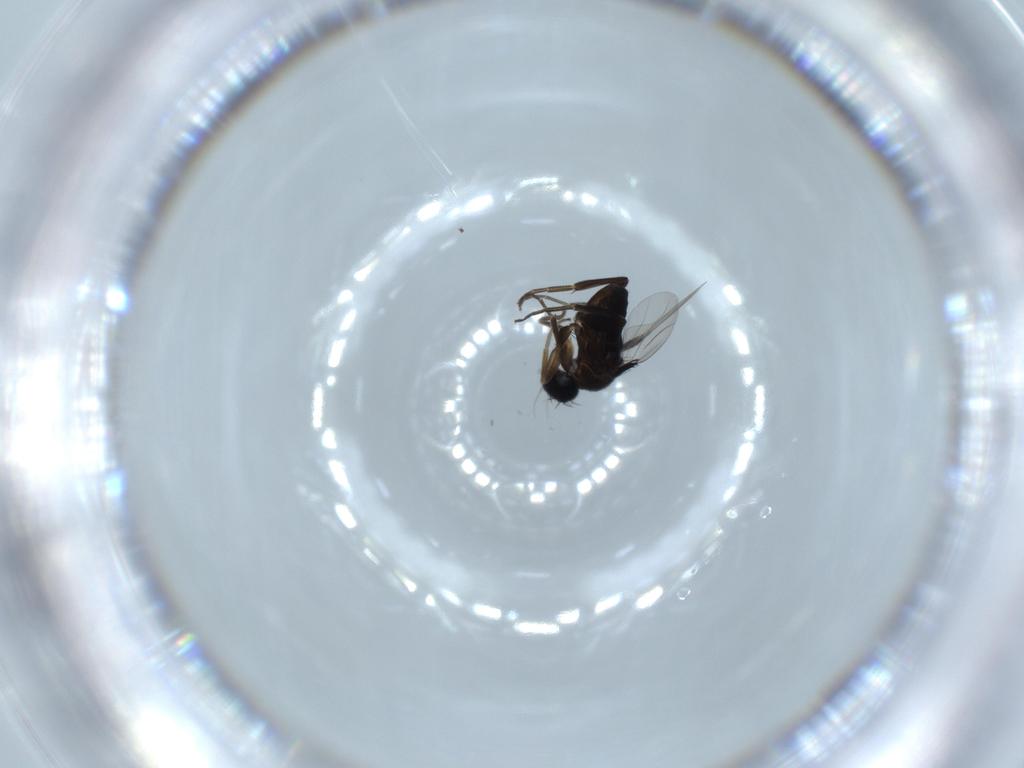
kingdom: Animalia
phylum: Arthropoda
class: Insecta
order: Diptera
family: Phoridae
